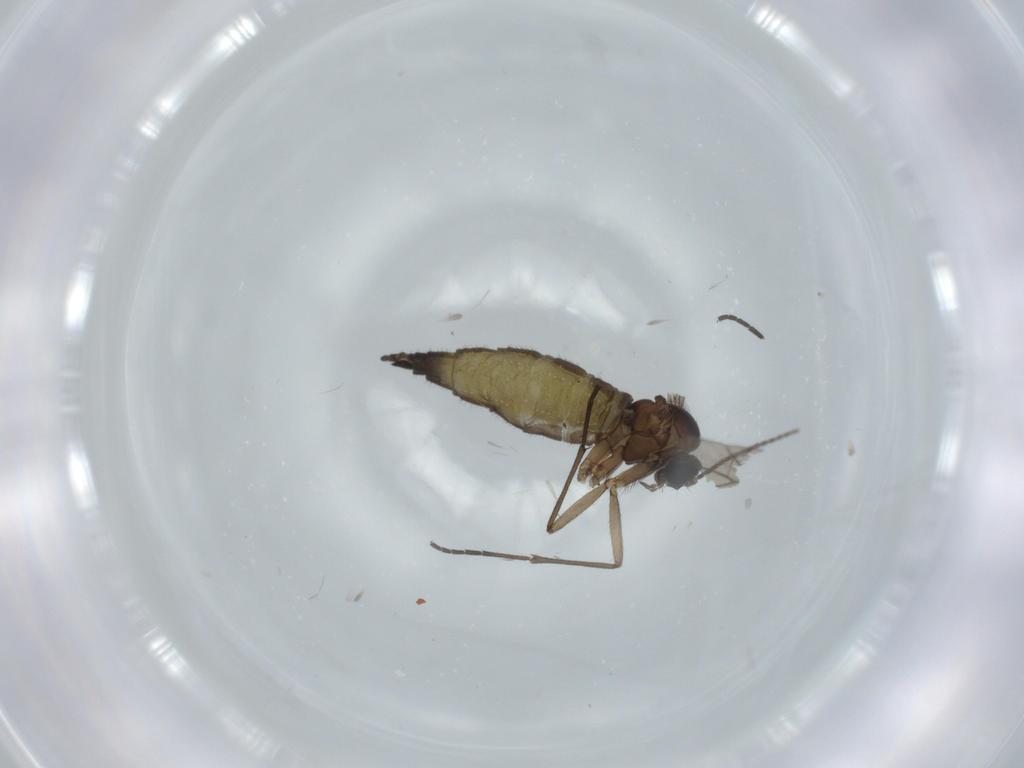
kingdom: Animalia
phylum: Arthropoda
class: Insecta
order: Diptera
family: Sciaridae
